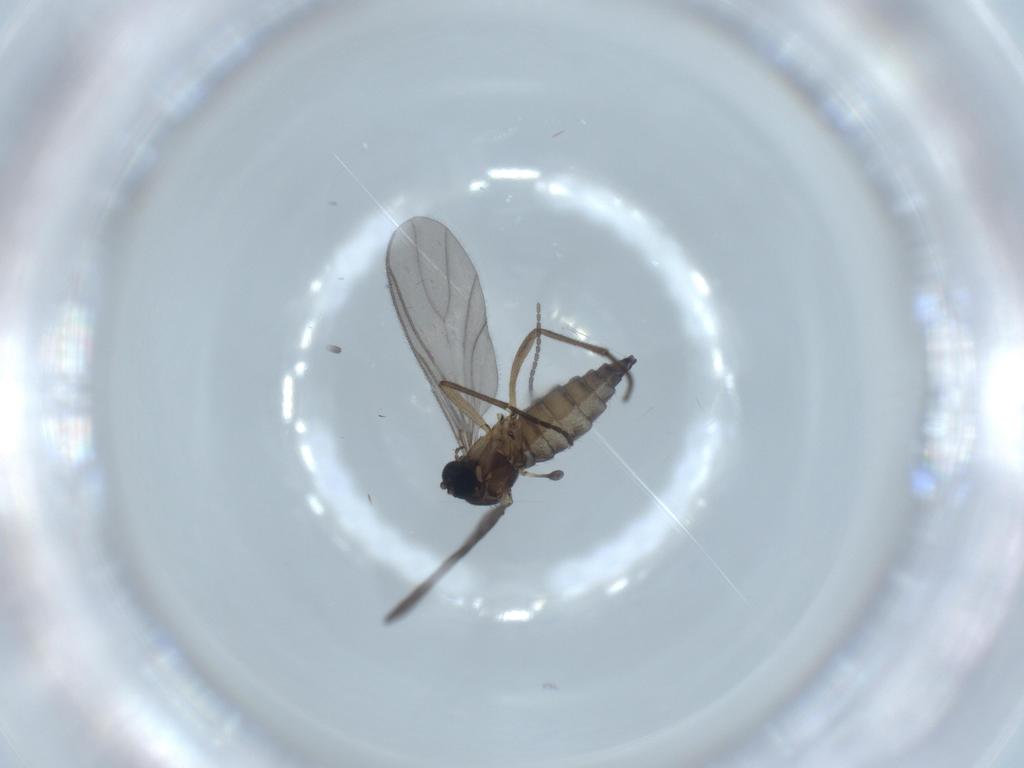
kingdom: Animalia
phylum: Arthropoda
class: Insecta
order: Diptera
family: Sciaridae
